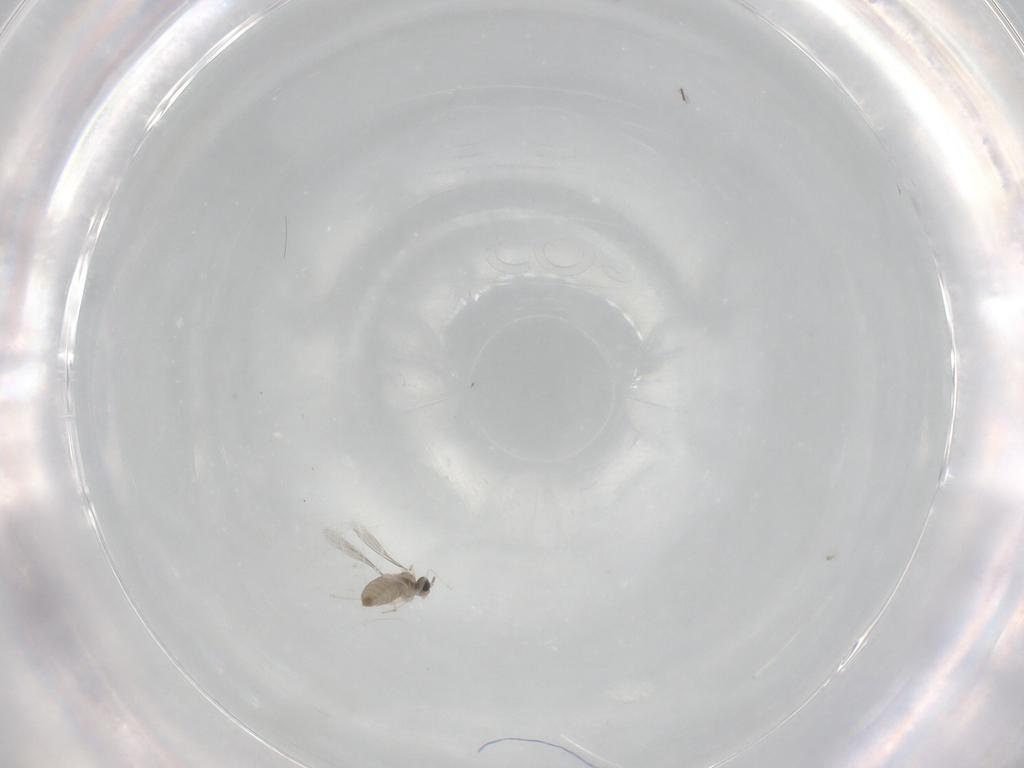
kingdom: Animalia
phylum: Arthropoda
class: Insecta
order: Diptera
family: Cecidomyiidae
